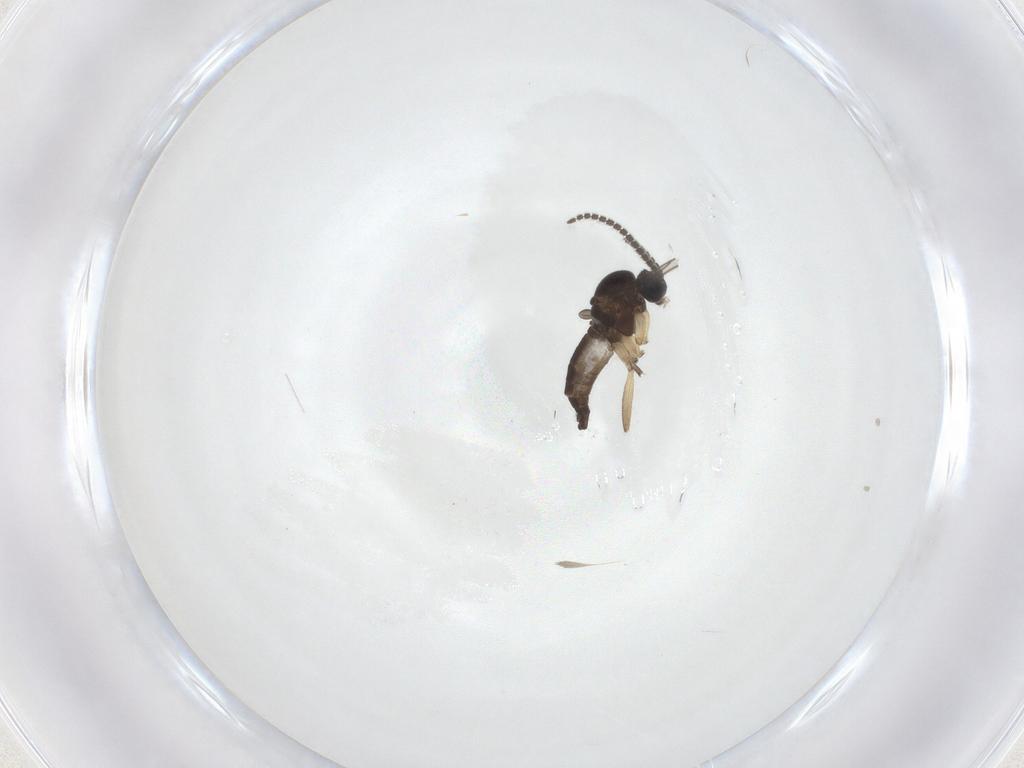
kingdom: Animalia
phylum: Arthropoda
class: Insecta
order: Diptera
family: Sciaridae
